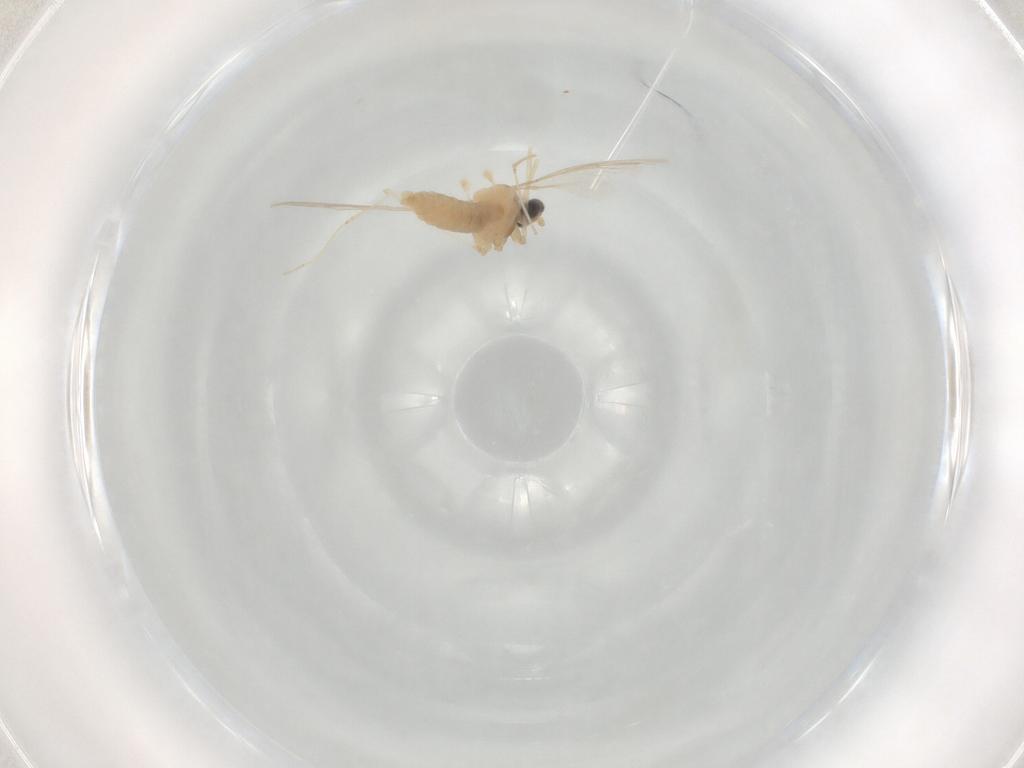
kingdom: Animalia
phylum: Arthropoda
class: Insecta
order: Diptera
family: Cecidomyiidae
